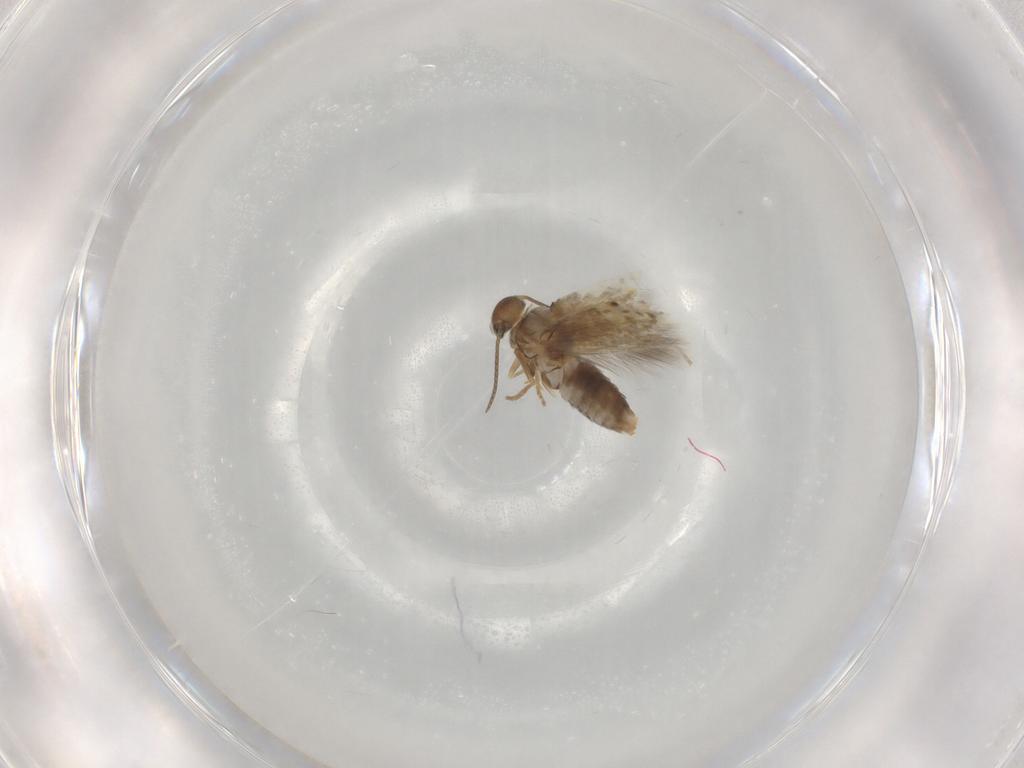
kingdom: Animalia
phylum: Arthropoda
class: Insecta
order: Lepidoptera
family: Heliozelidae
